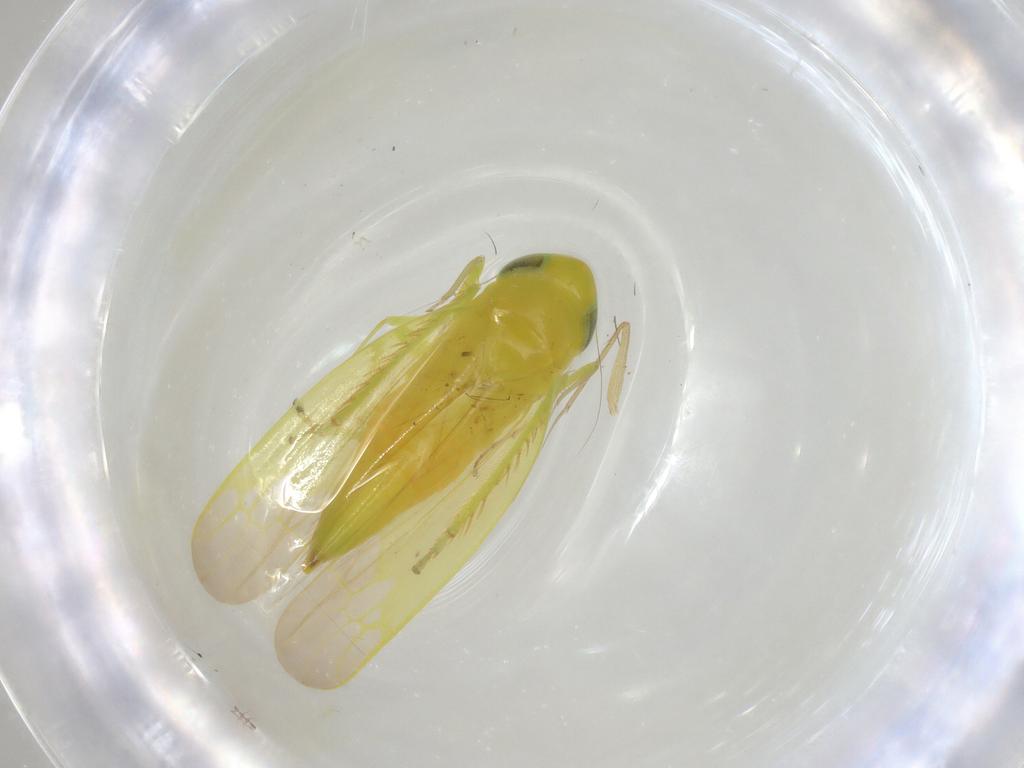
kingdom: Animalia
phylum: Arthropoda
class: Insecta
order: Diptera
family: Dolichopodidae
